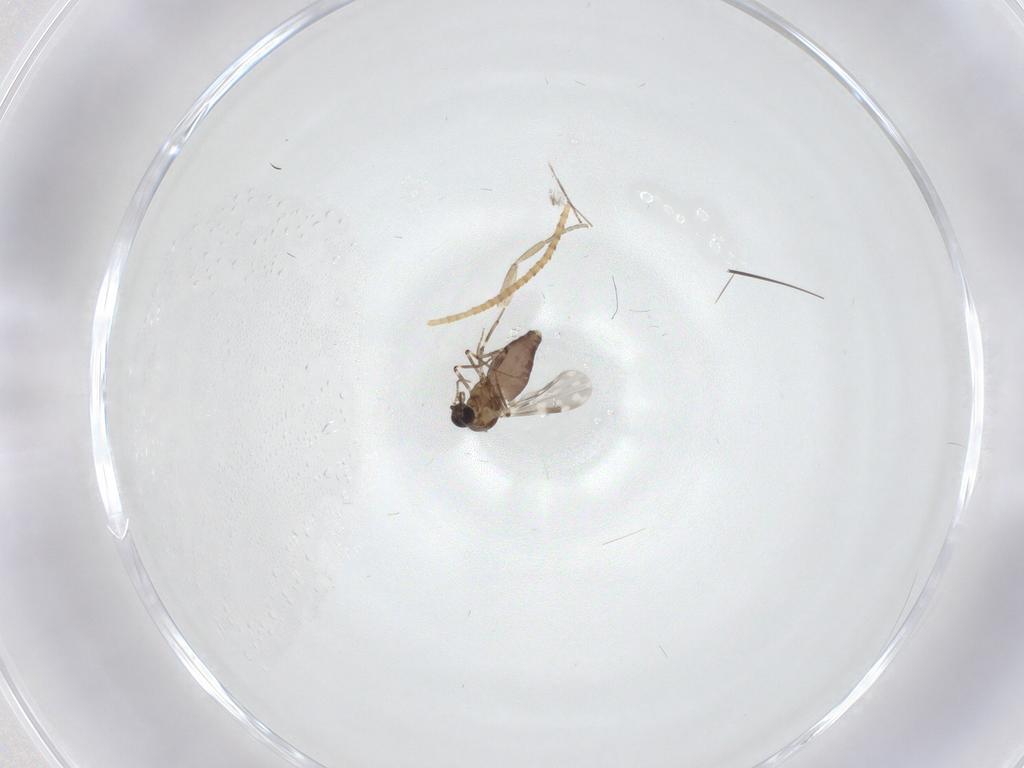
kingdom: Animalia
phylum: Arthropoda
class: Insecta
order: Diptera
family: Ceratopogonidae
